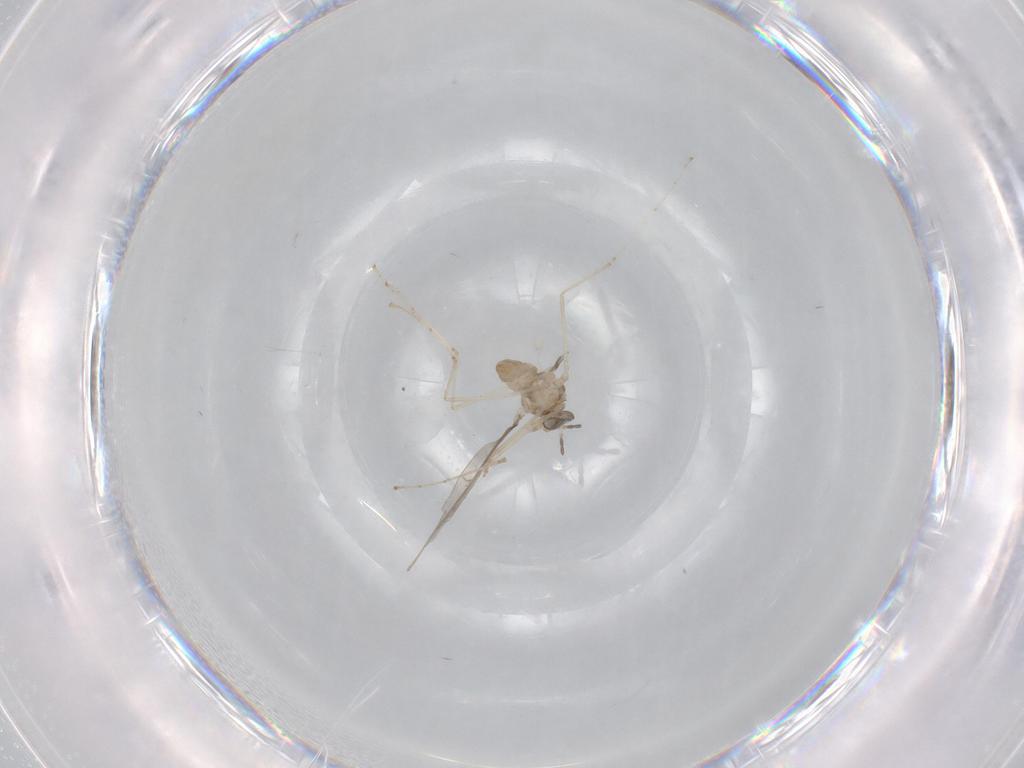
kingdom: Animalia
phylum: Arthropoda
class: Insecta
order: Diptera
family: Cecidomyiidae
